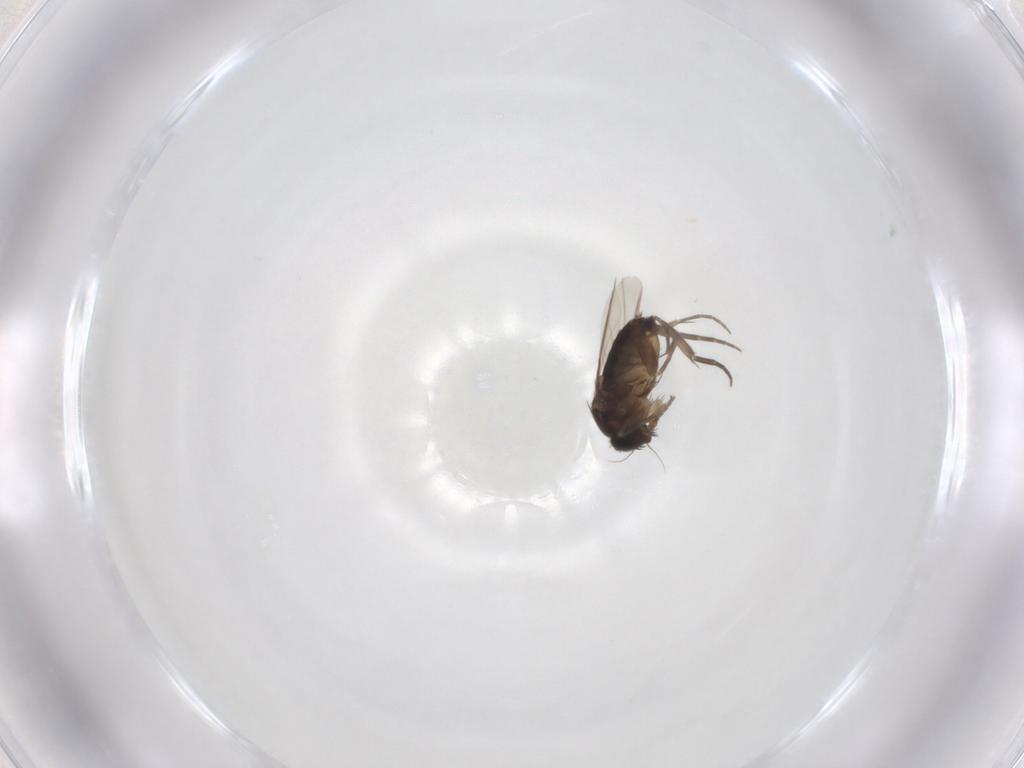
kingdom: Animalia
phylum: Arthropoda
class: Insecta
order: Diptera
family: Phoridae
